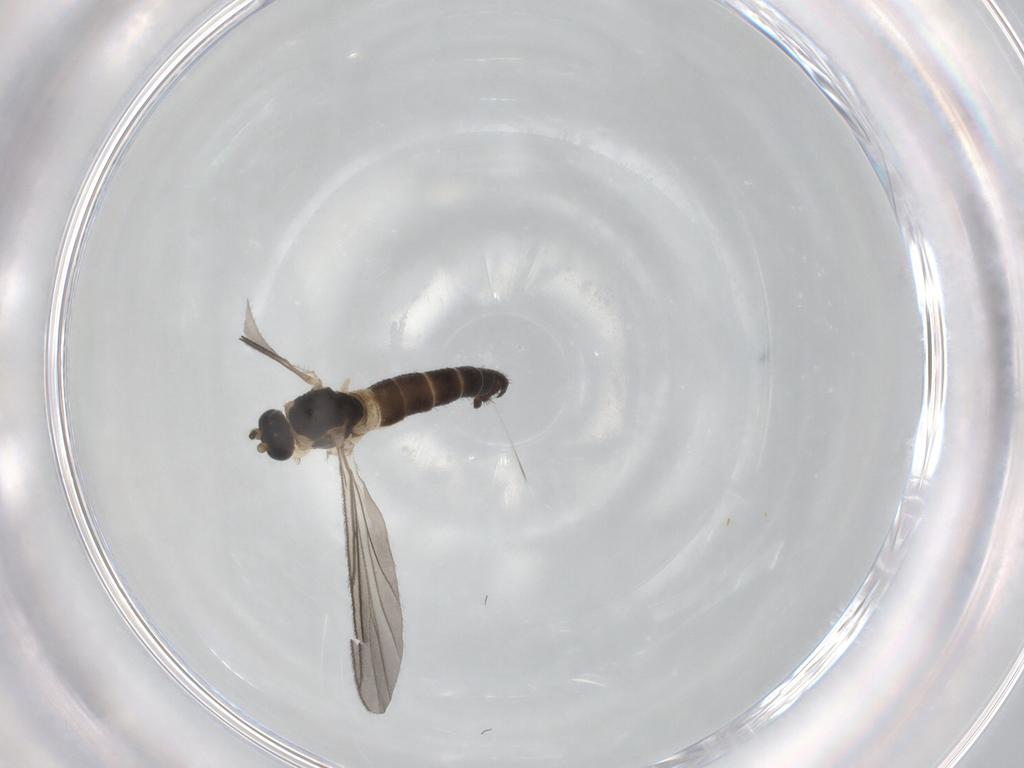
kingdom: Animalia
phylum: Arthropoda
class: Insecta
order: Diptera
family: Sciaridae
